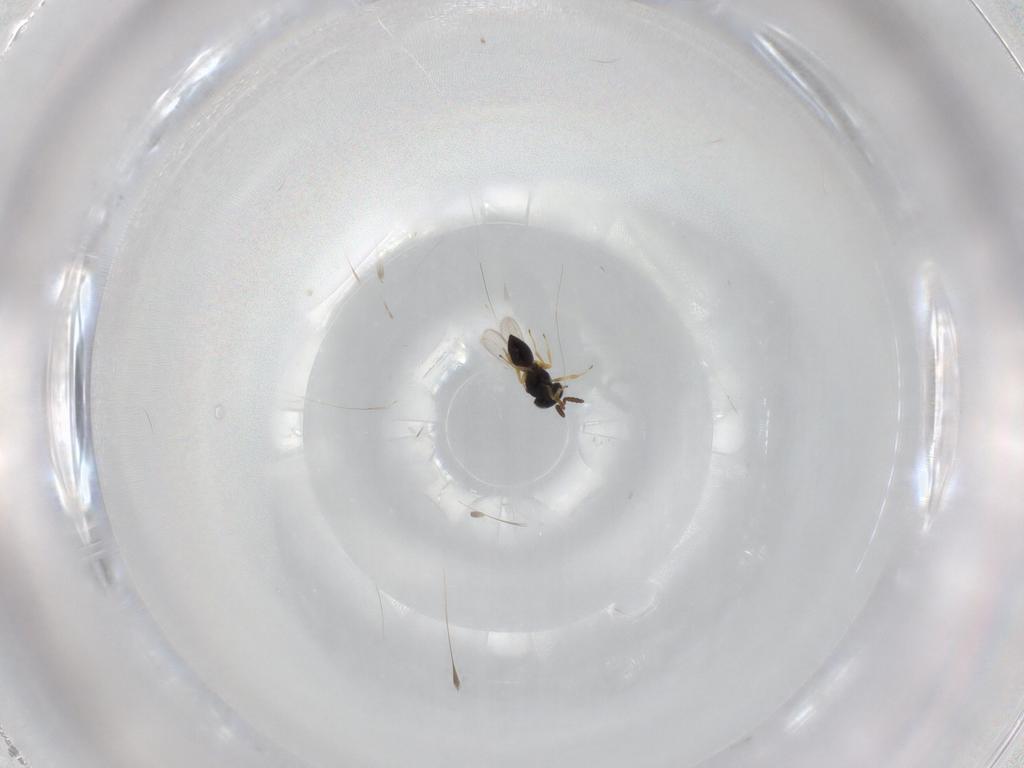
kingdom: Animalia
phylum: Arthropoda
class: Insecta
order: Hymenoptera
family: Scelionidae
